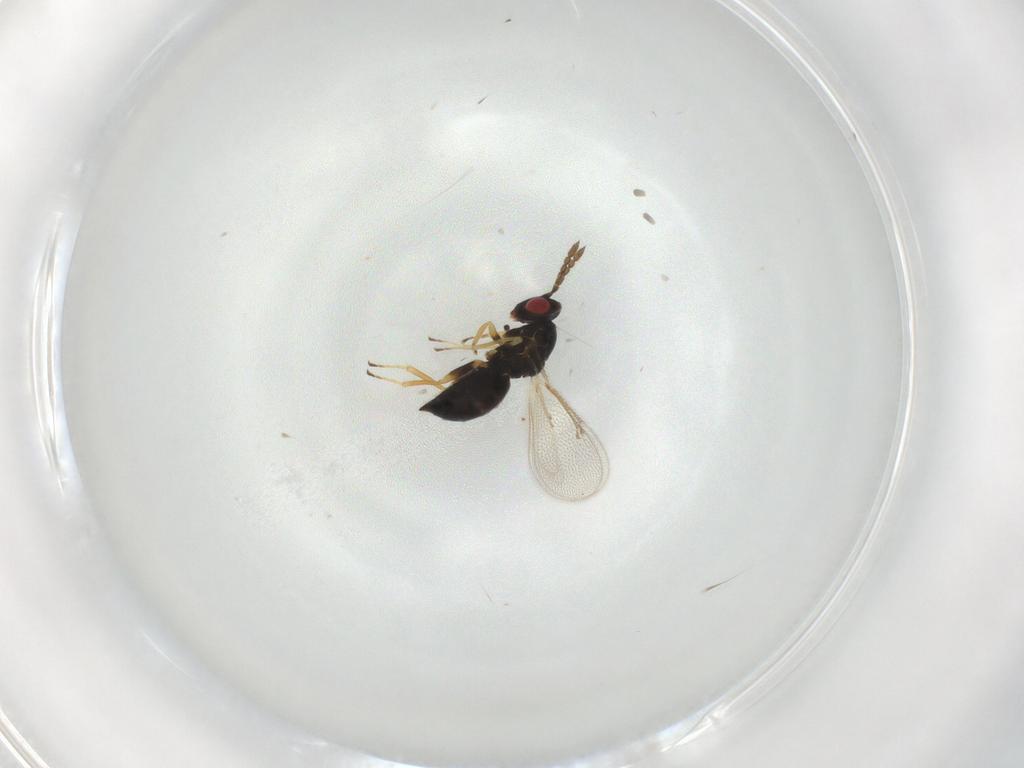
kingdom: Animalia
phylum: Arthropoda
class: Insecta
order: Hymenoptera
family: Eulophidae
